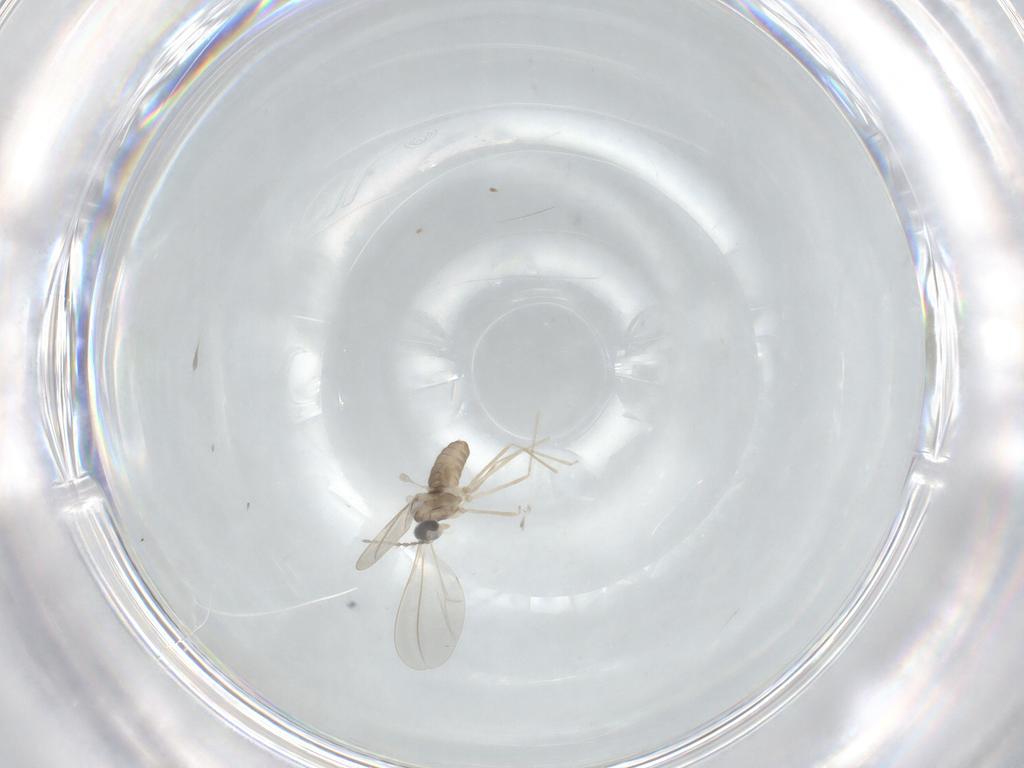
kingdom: Animalia
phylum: Arthropoda
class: Insecta
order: Diptera
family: Cecidomyiidae
